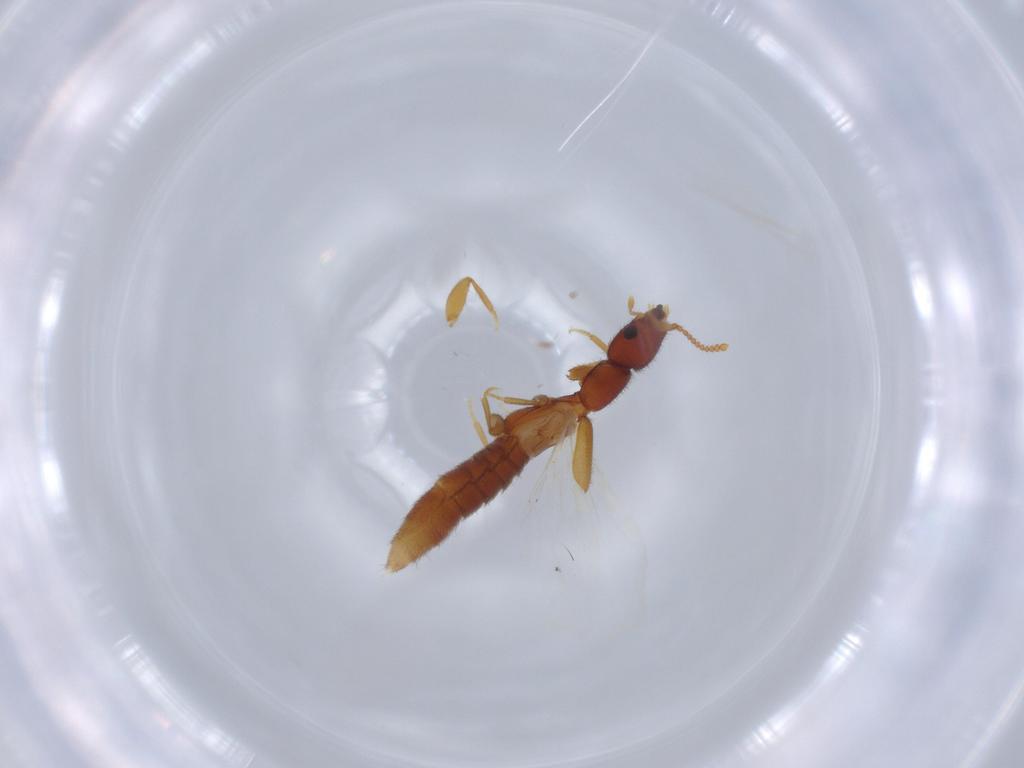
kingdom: Animalia
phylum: Arthropoda
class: Insecta
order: Coleoptera
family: Staphylinidae
